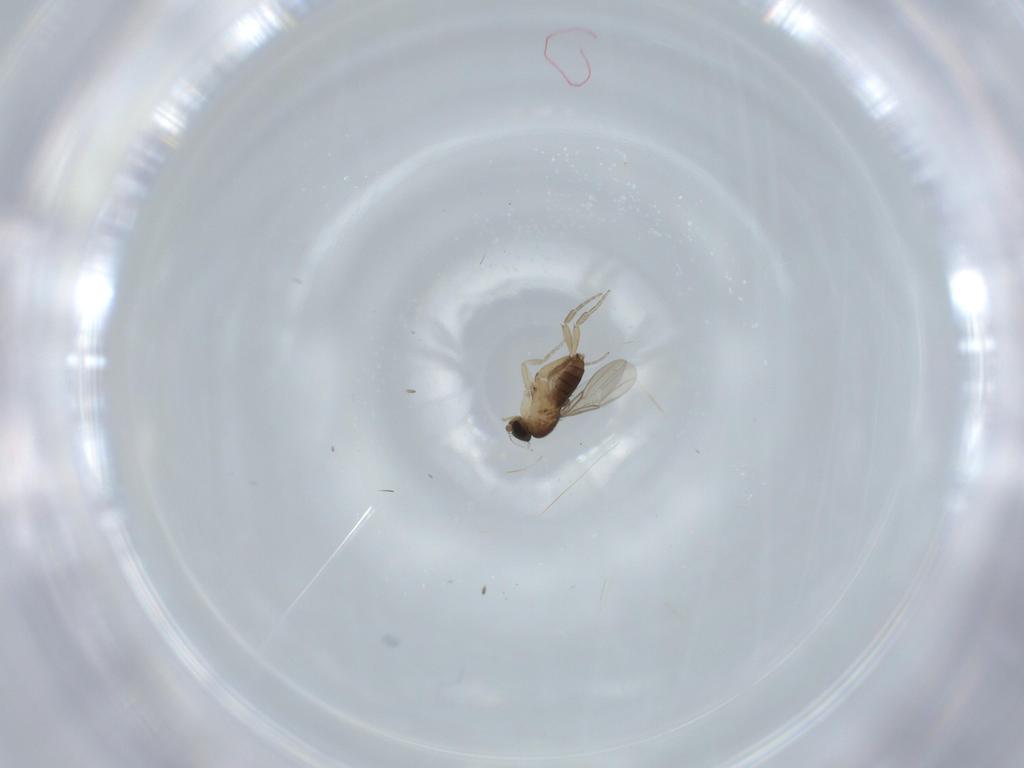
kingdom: Animalia
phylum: Arthropoda
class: Insecta
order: Diptera
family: Phoridae
